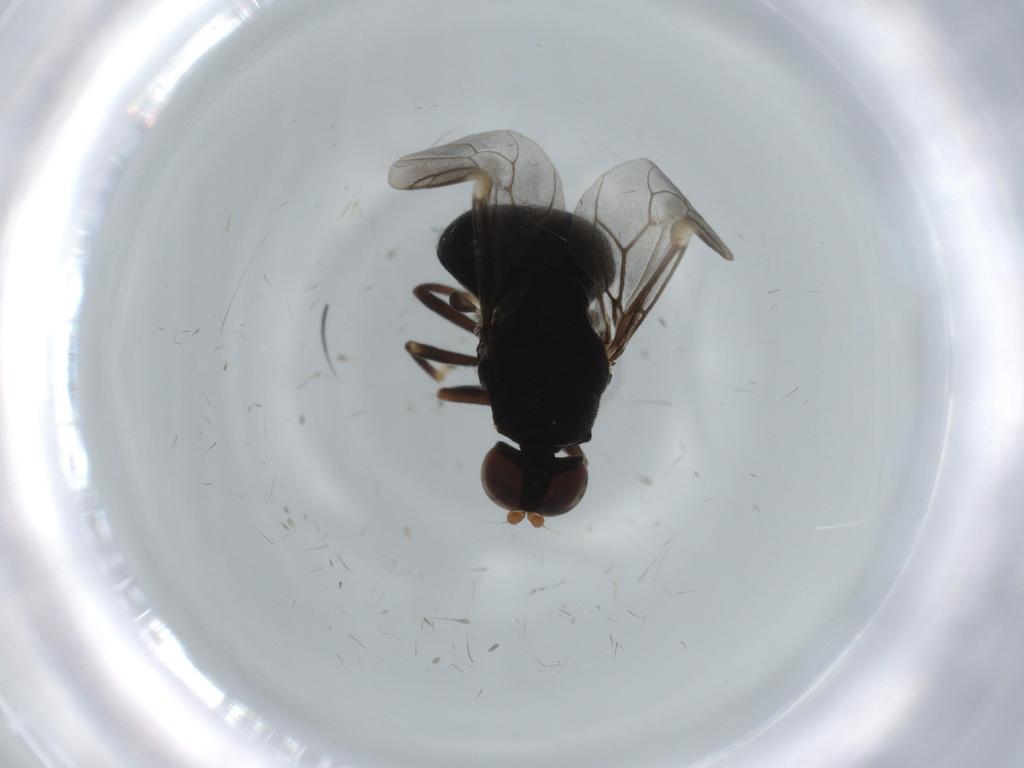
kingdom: Animalia
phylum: Arthropoda
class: Insecta
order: Diptera
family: Stratiomyidae
